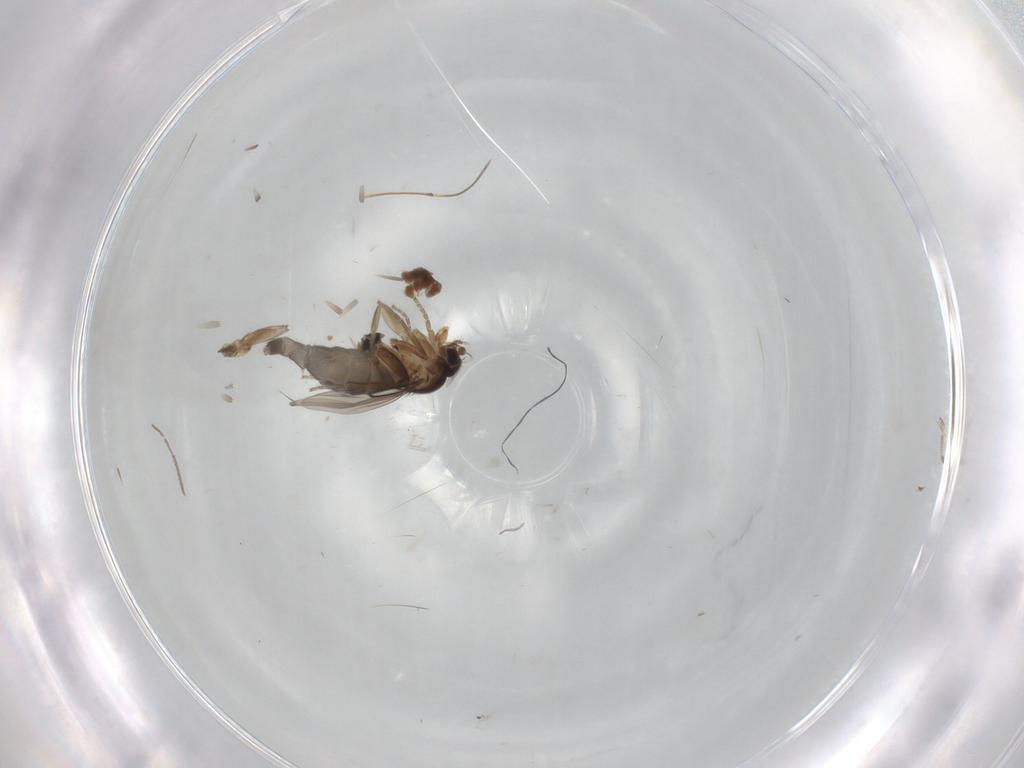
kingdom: Animalia
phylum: Arthropoda
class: Insecta
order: Diptera
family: Phoridae
